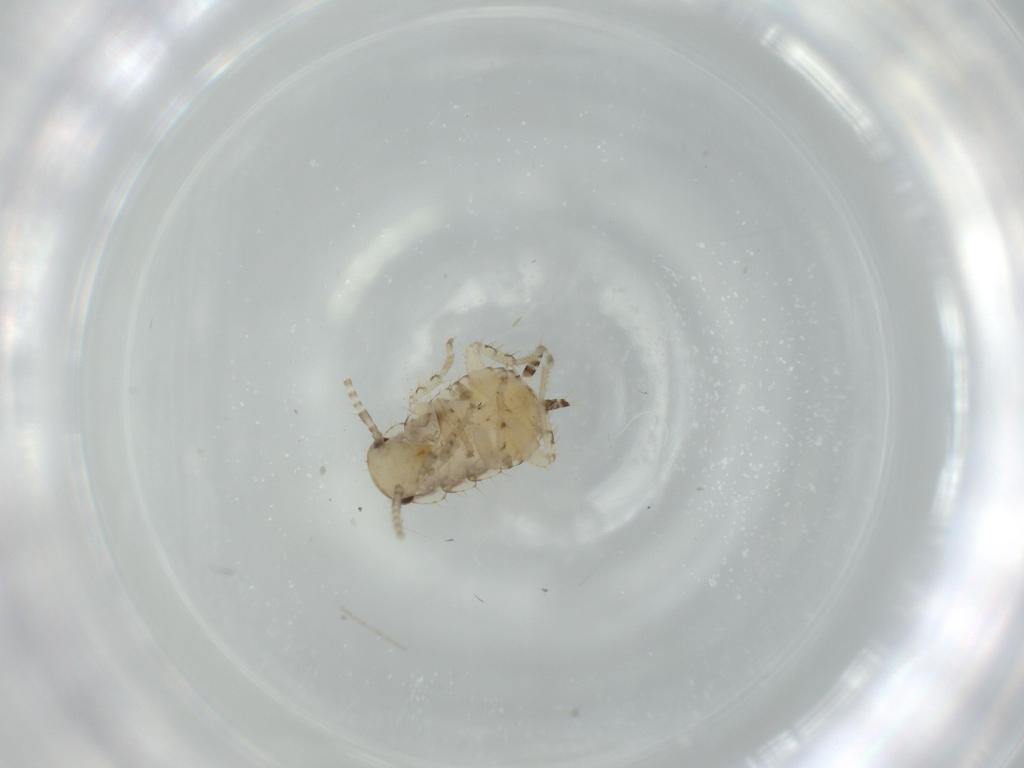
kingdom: Animalia
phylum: Arthropoda
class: Insecta
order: Blattodea
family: Ectobiidae
